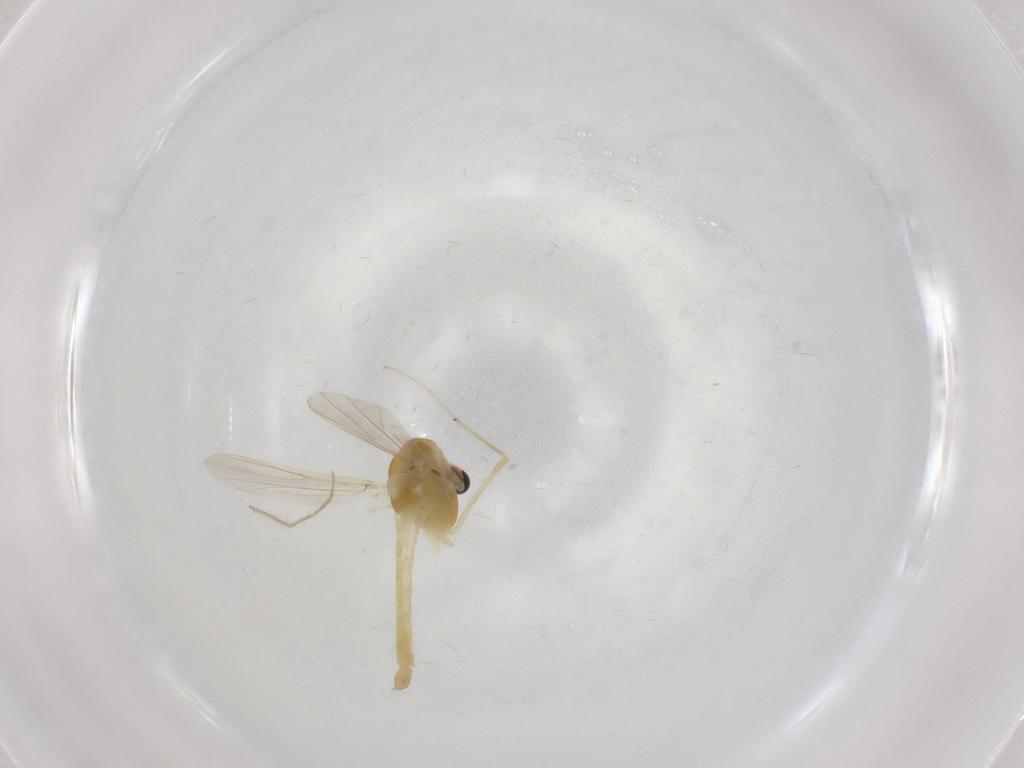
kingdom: Animalia
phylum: Arthropoda
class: Insecta
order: Diptera
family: Chironomidae
